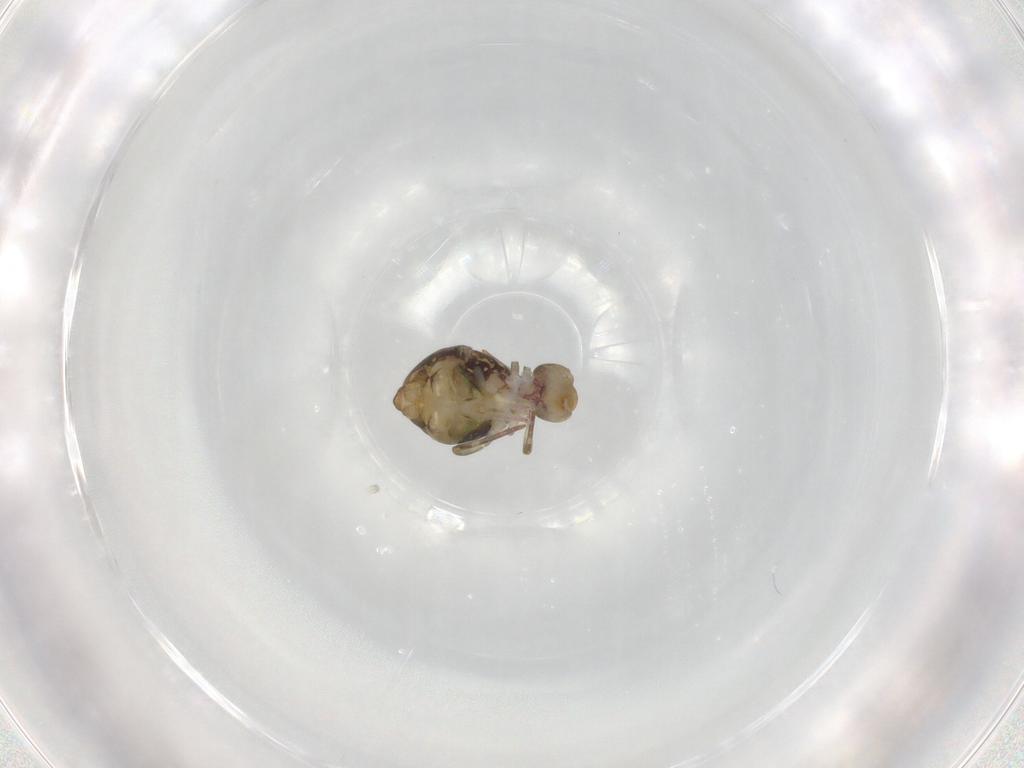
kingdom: Animalia
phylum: Arthropoda
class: Collembola
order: Symphypleona
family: Dicyrtomidae
